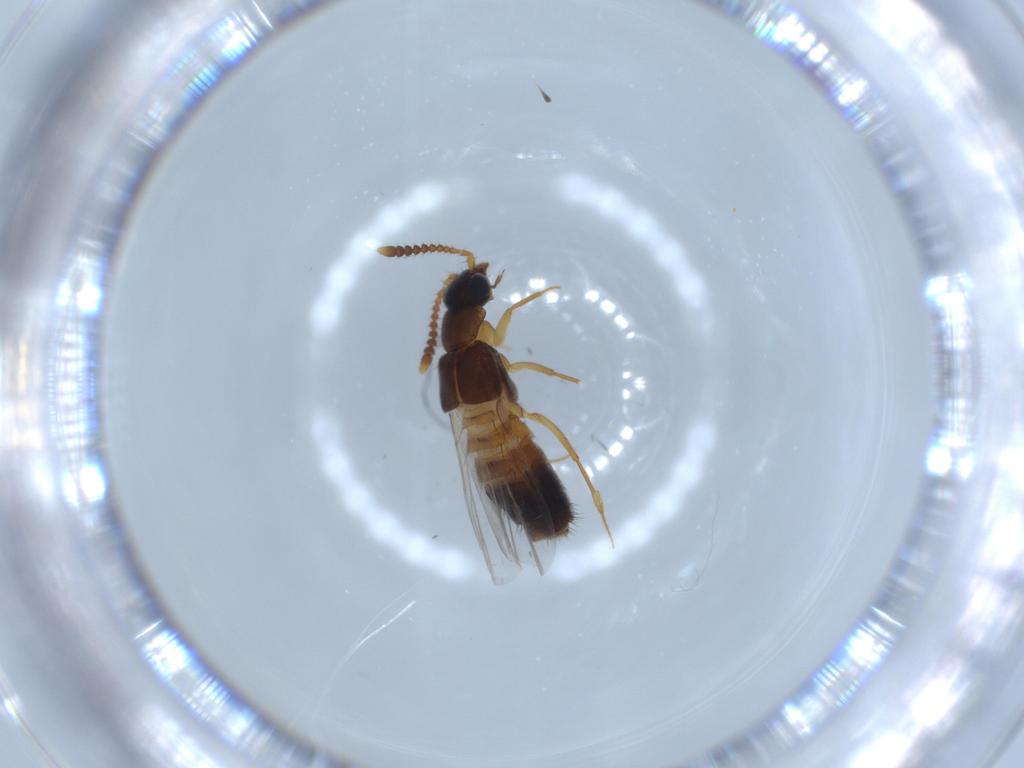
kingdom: Animalia
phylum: Arthropoda
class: Insecta
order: Coleoptera
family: Staphylinidae
